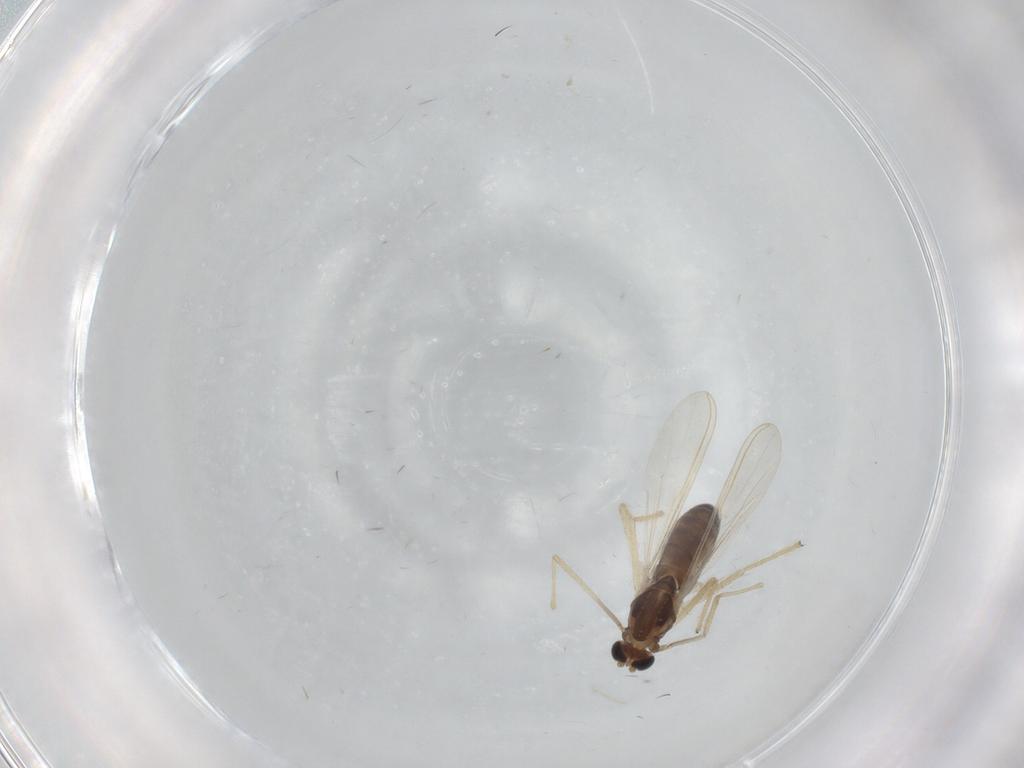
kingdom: Animalia
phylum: Arthropoda
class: Insecta
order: Diptera
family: Chironomidae
